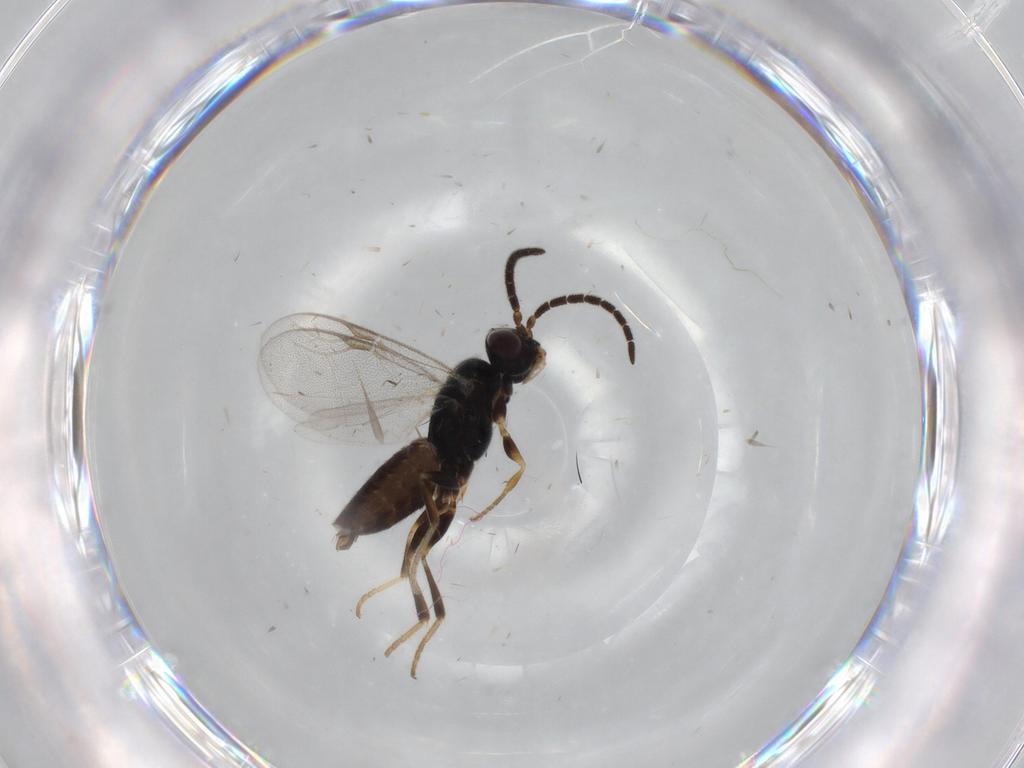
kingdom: Animalia
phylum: Arthropoda
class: Insecta
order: Hymenoptera
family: Dryinidae
